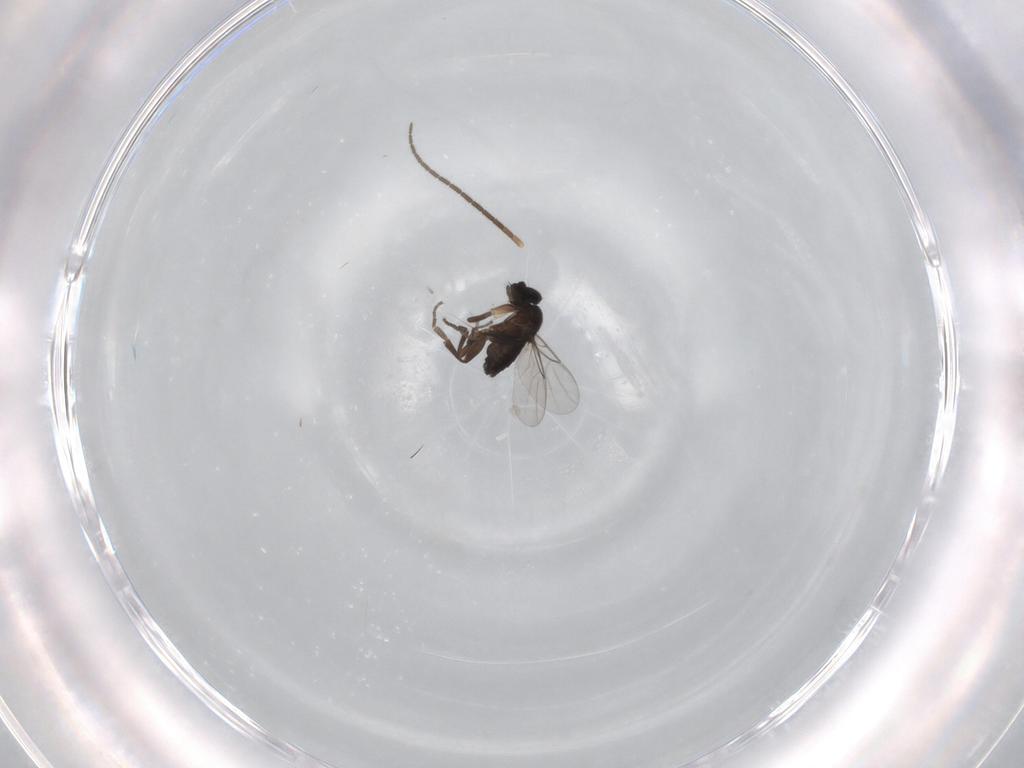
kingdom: Animalia
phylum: Arthropoda
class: Insecta
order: Diptera
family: Phoridae
